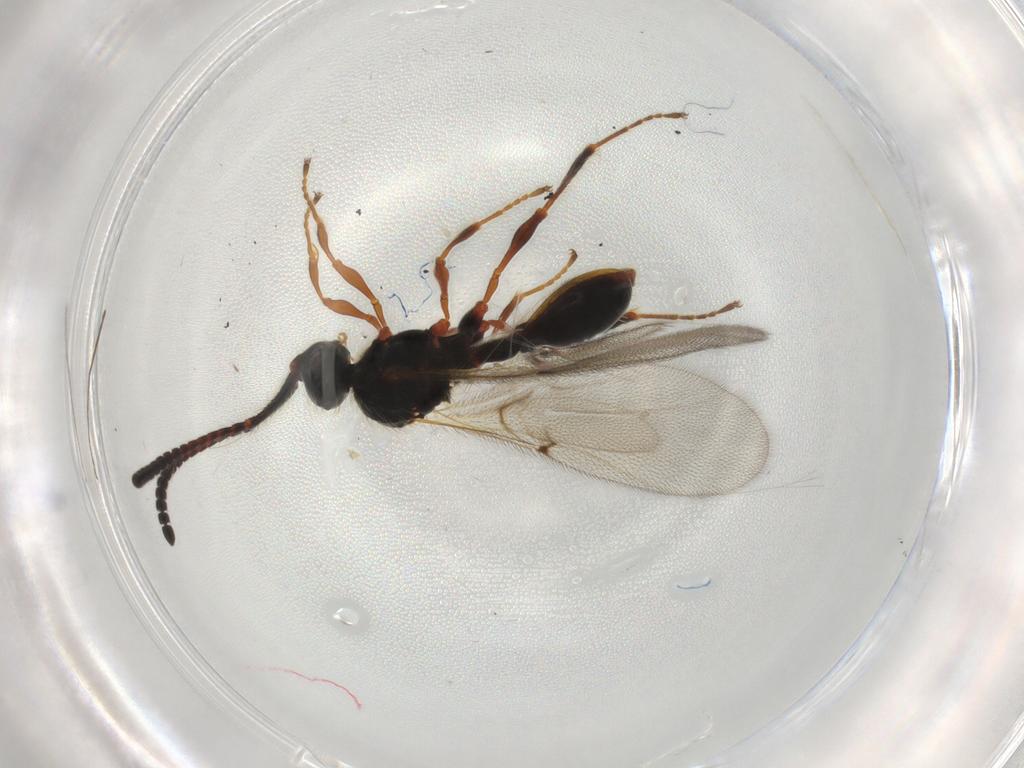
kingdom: Animalia
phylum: Arthropoda
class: Insecta
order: Hymenoptera
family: Diapriidae
